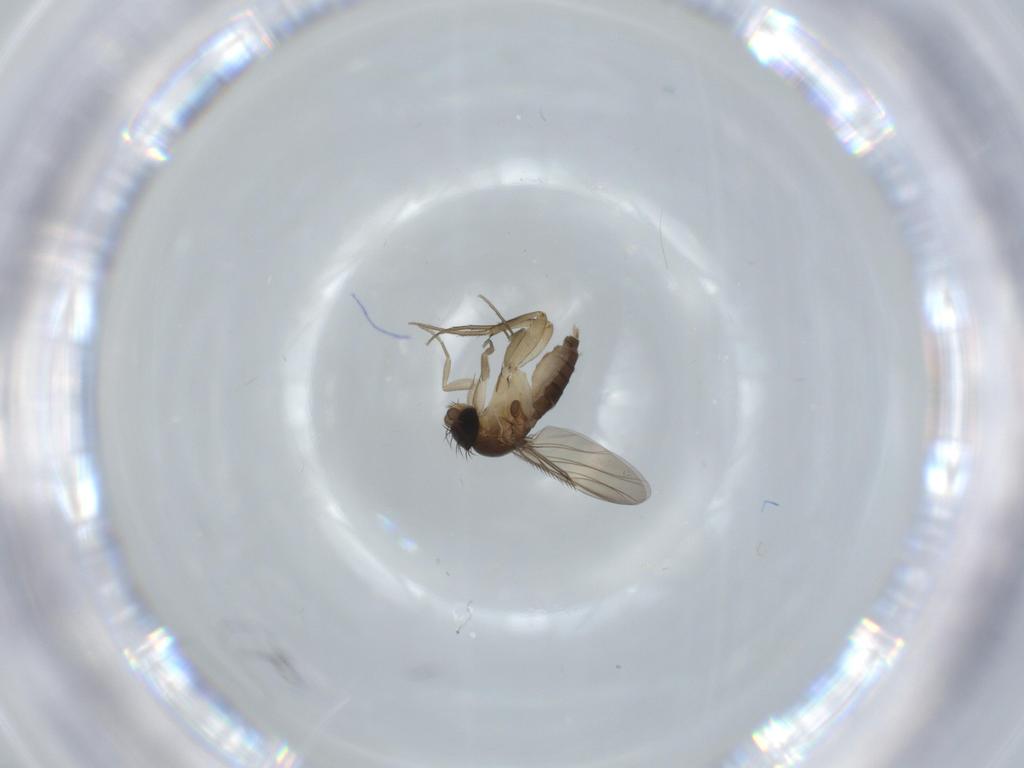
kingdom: Animalia
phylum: Arthropoda
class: Insecta
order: Diptera
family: Phoridae
